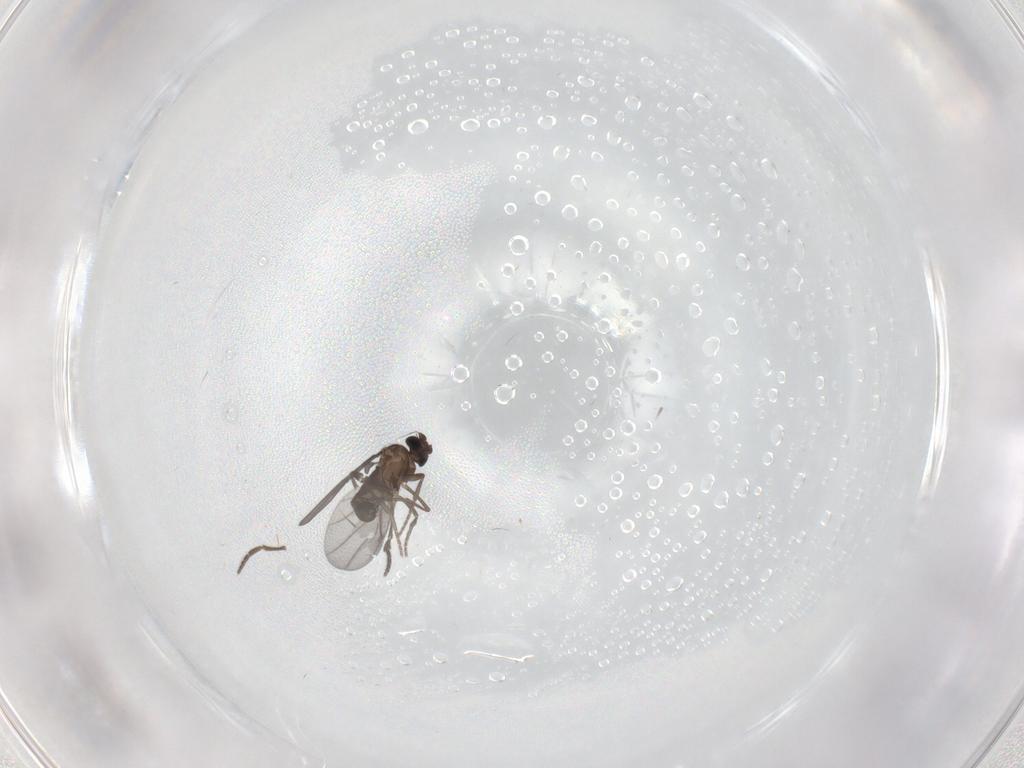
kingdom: Animalia
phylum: Arthropoda
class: Insecta
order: Diptera
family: Phoridae
